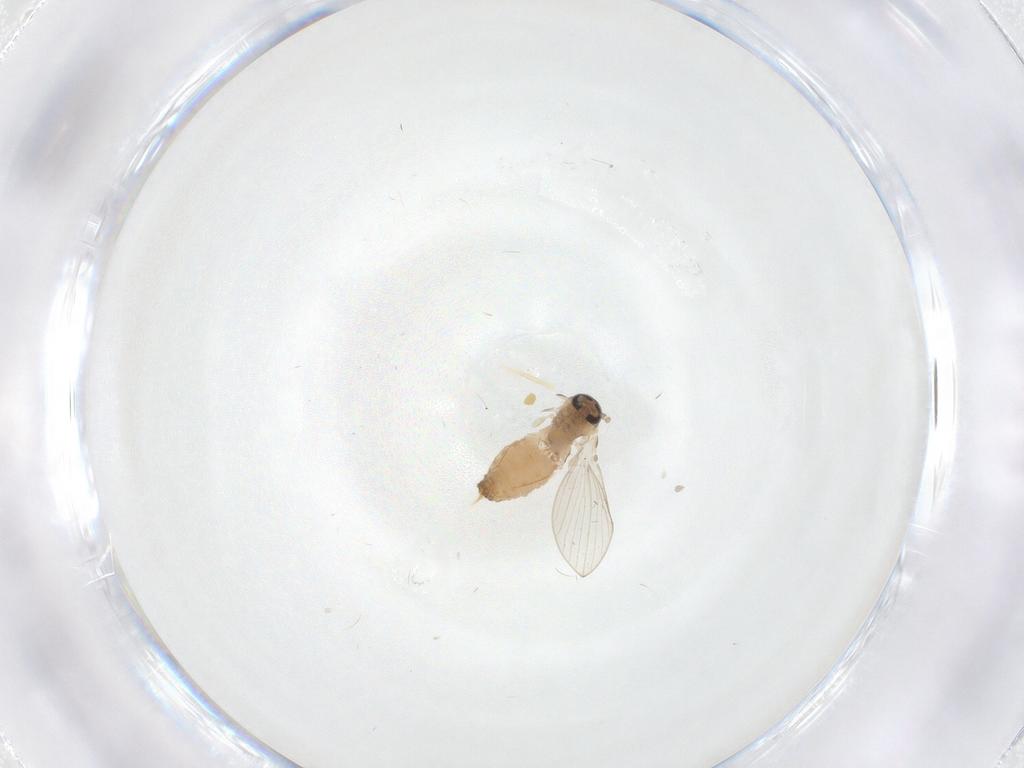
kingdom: Animalia
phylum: Arthropoda
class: Insecta
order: Diptera
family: Psychodidae
